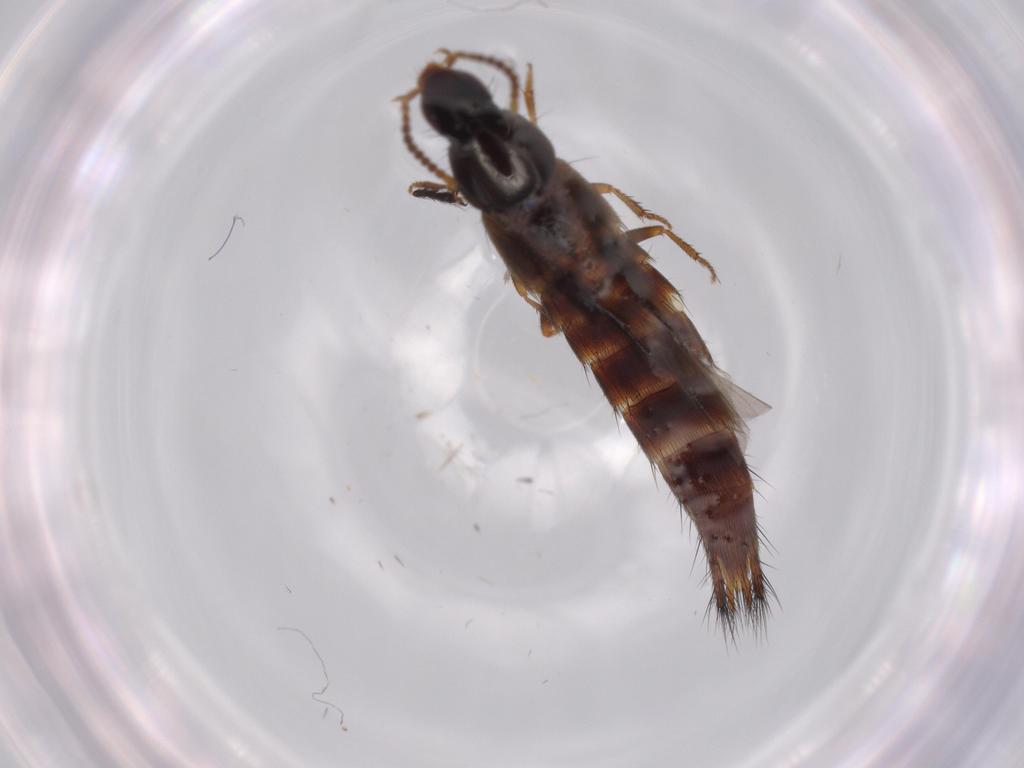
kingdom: Animalia
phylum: Arthropoda
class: Insecta
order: Coleoptera
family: Staphylinidae
